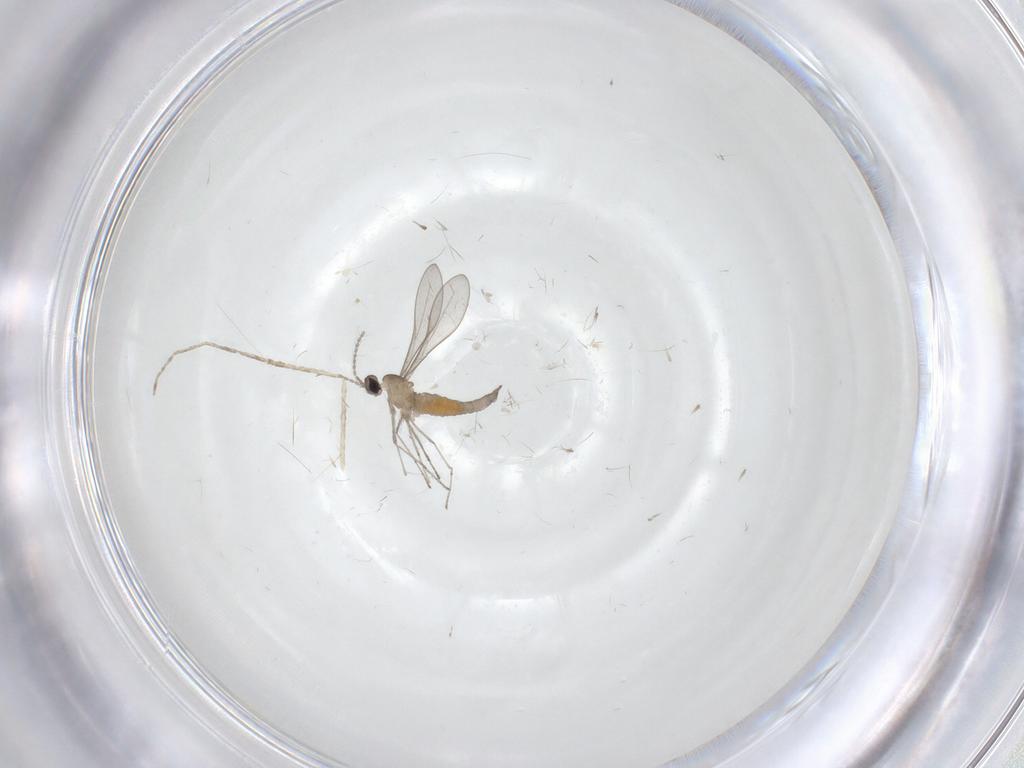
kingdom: Animalia
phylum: Arthropoda
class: Insecta
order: Diptera
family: Cecidomyiidae
